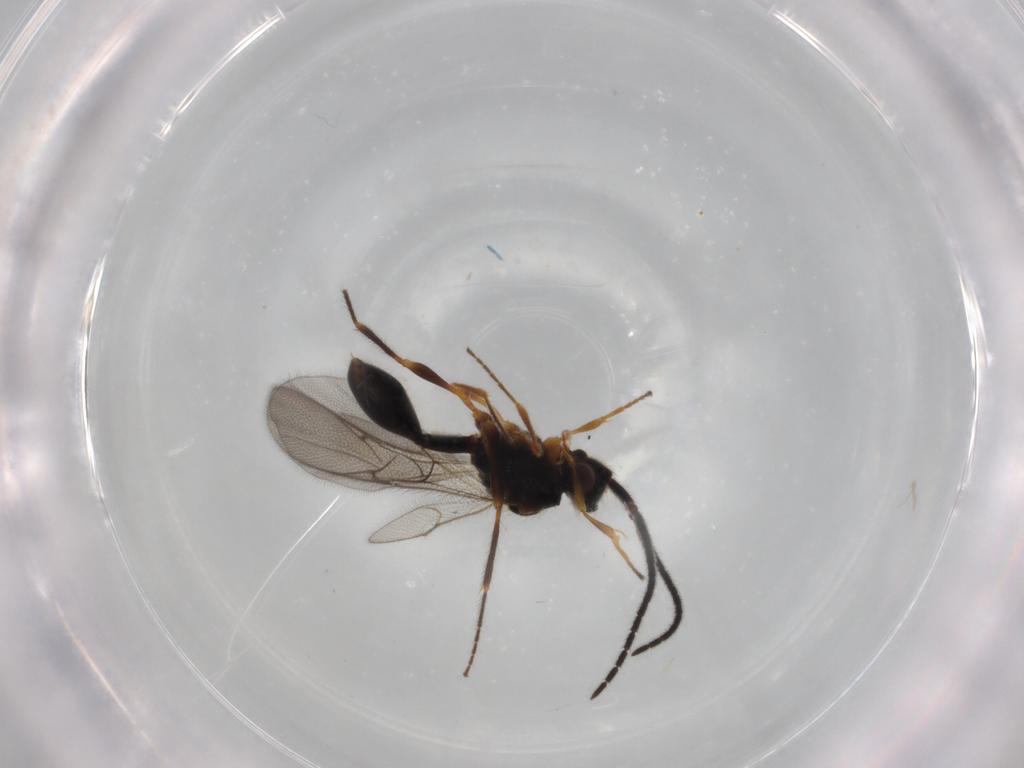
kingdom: Animalia
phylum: Arthropoda
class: Insecta
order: Hymenoptera
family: Diapriidae
